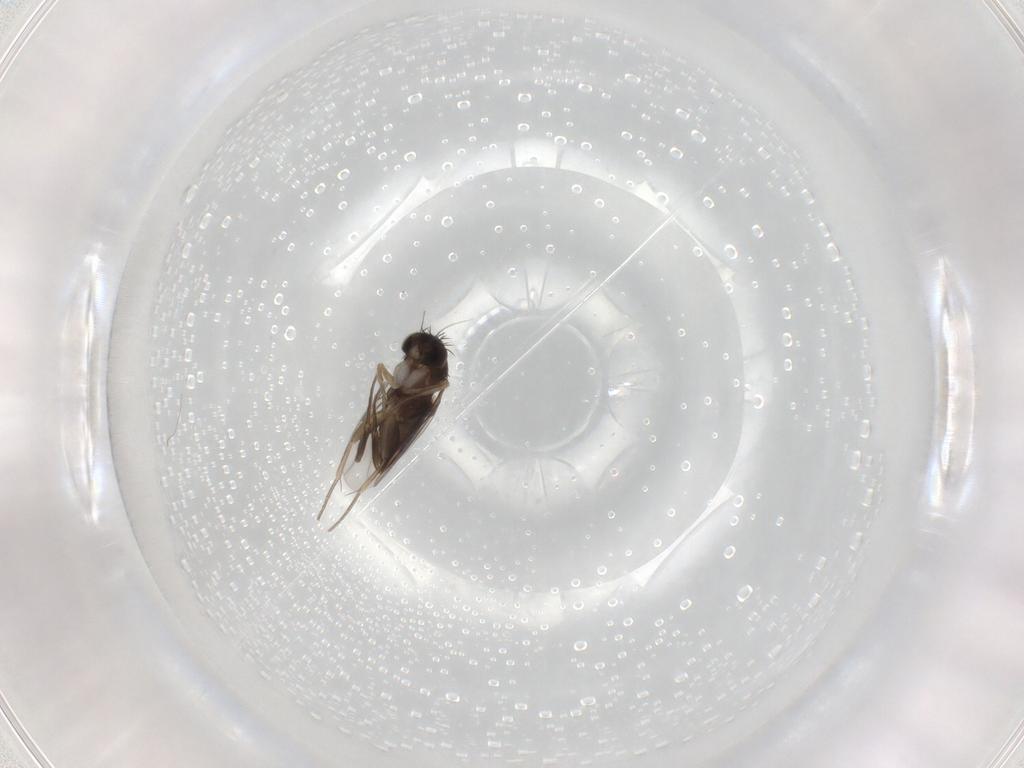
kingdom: Animalia
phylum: Arthropoda
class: Insecta
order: Diptera
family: Phoridae
